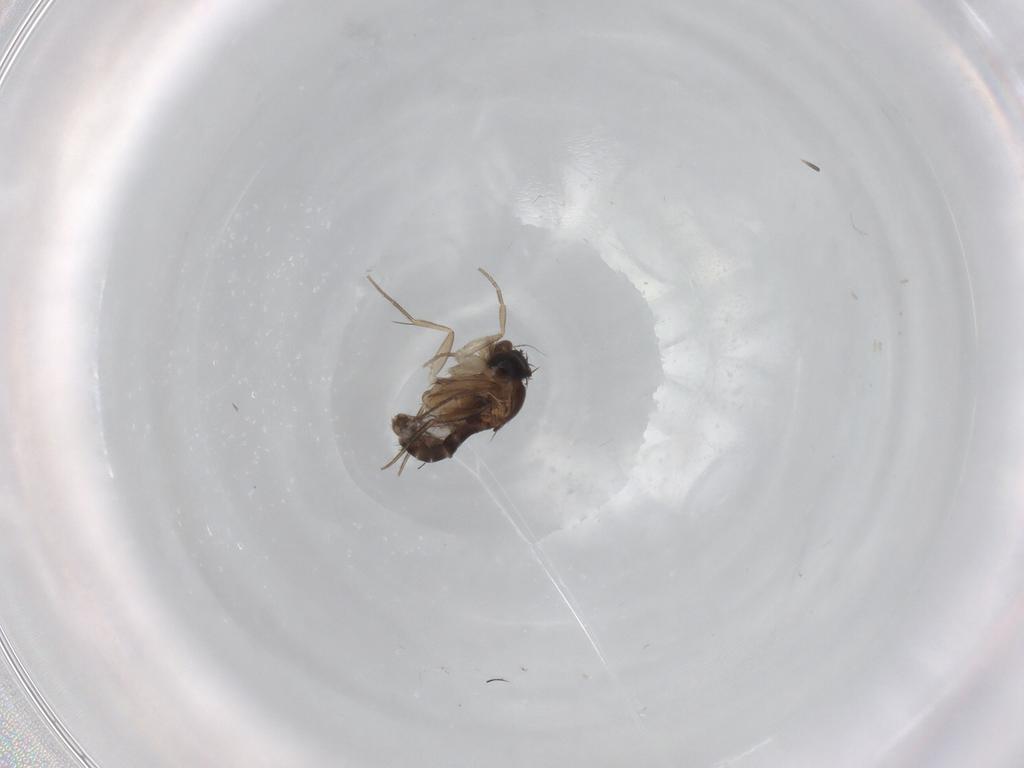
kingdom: Animalia
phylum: Arthropoda
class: Insecta
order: Diptera
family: Phoridae
